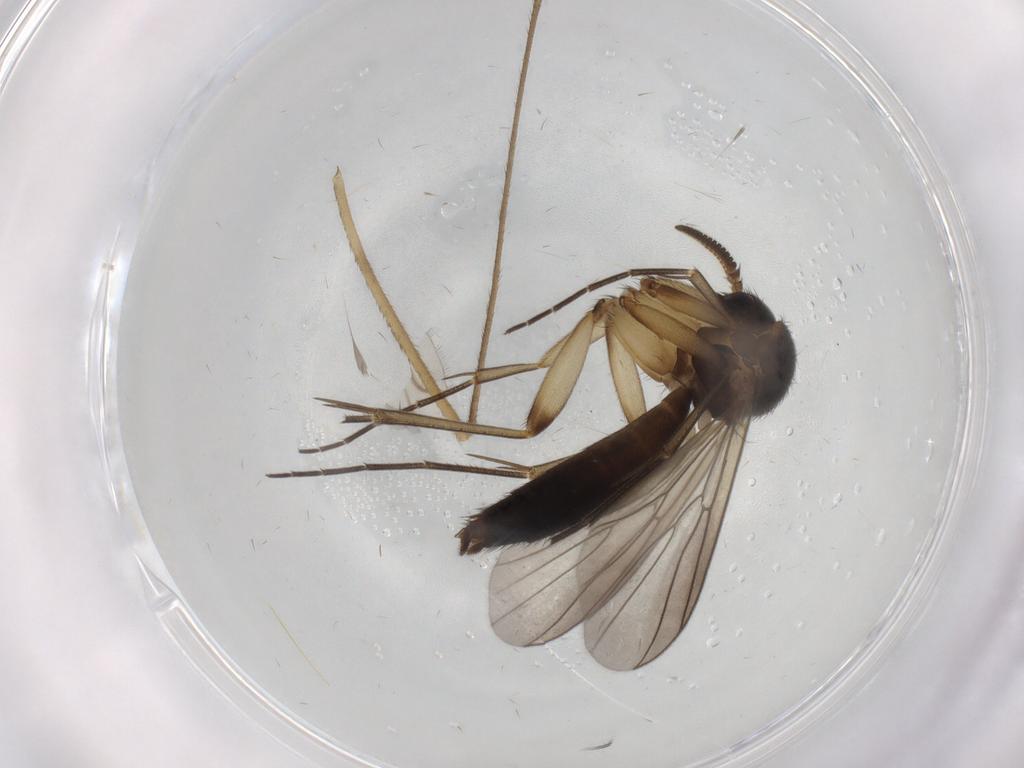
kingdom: Animalia
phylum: Arthropoda
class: Insecta
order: Diptera
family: Mycetophilidae
